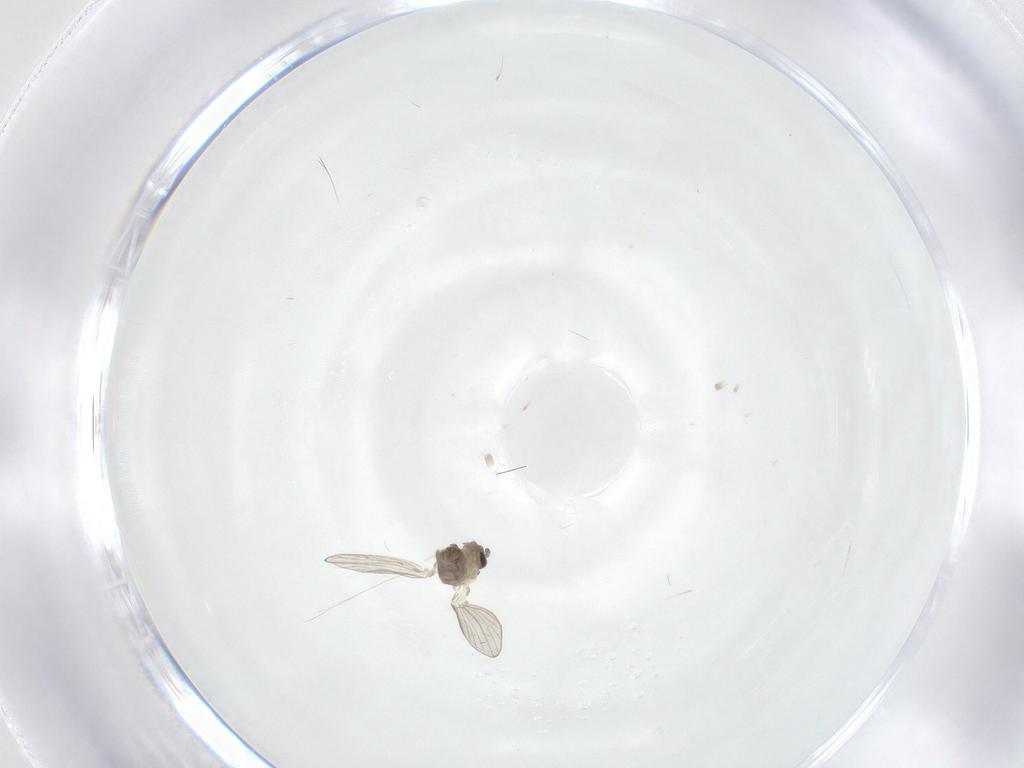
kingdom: Animalia
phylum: Arthropoda
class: Insecta
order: Diptera
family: Psychodidae
